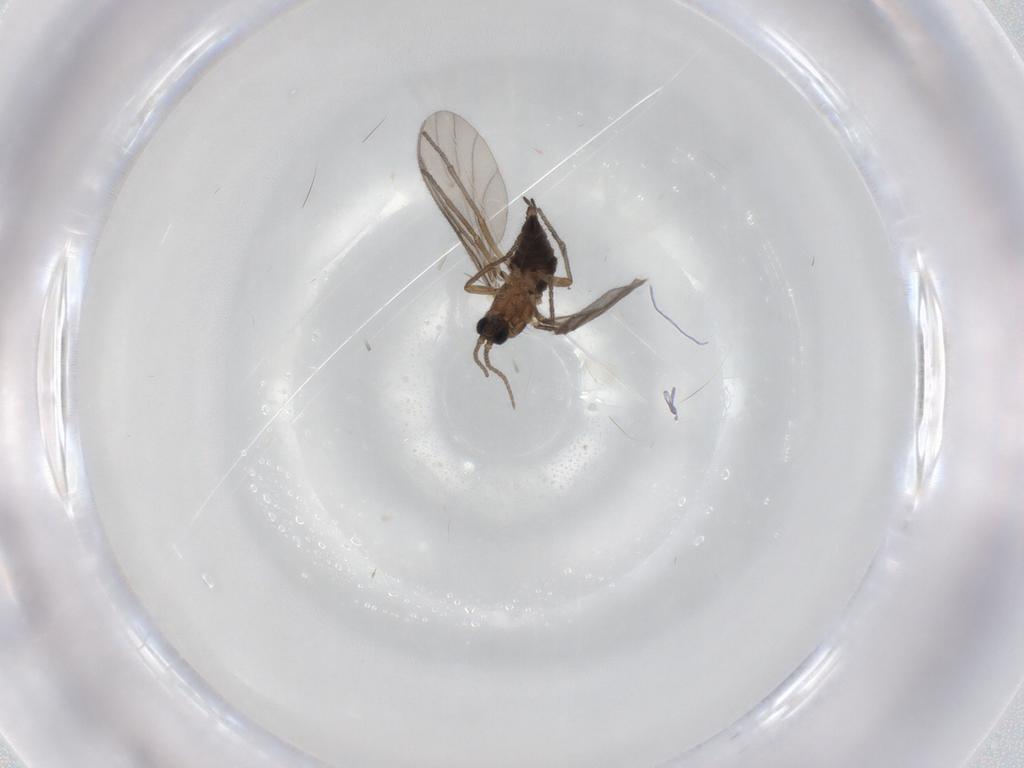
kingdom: Animalia
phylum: Arthropoda
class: Insecta
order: Diptera
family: Sciaridae
